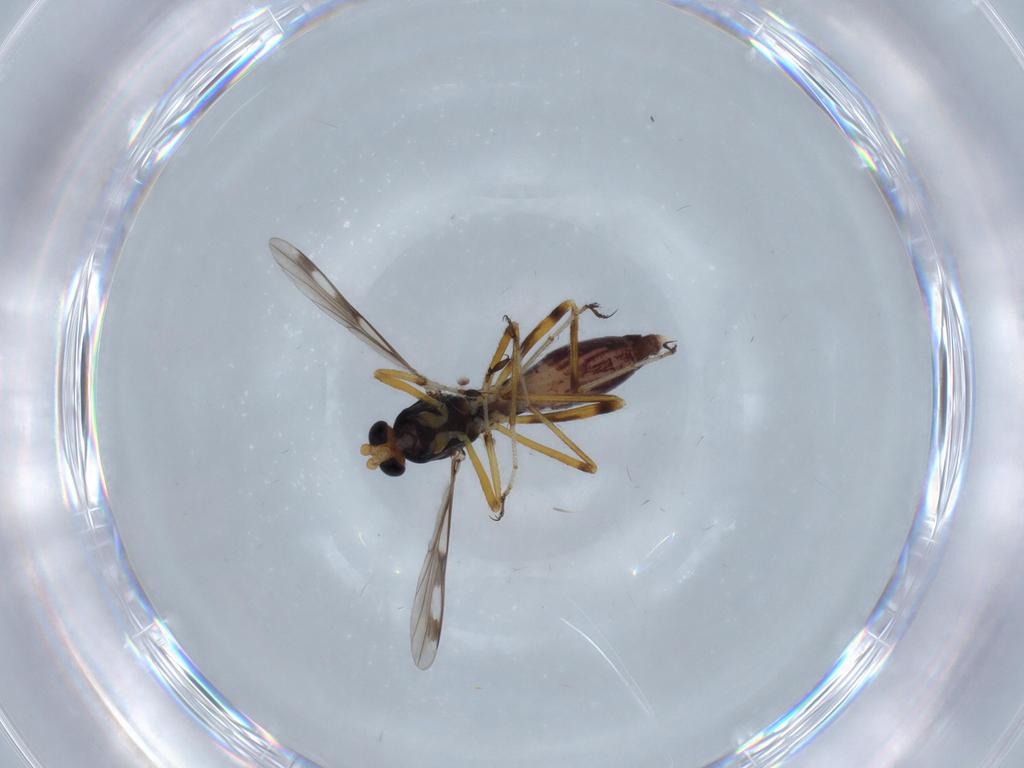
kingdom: Animalia
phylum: Arthropoda
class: Insecta
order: Diptera
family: Ceratopogonidae
